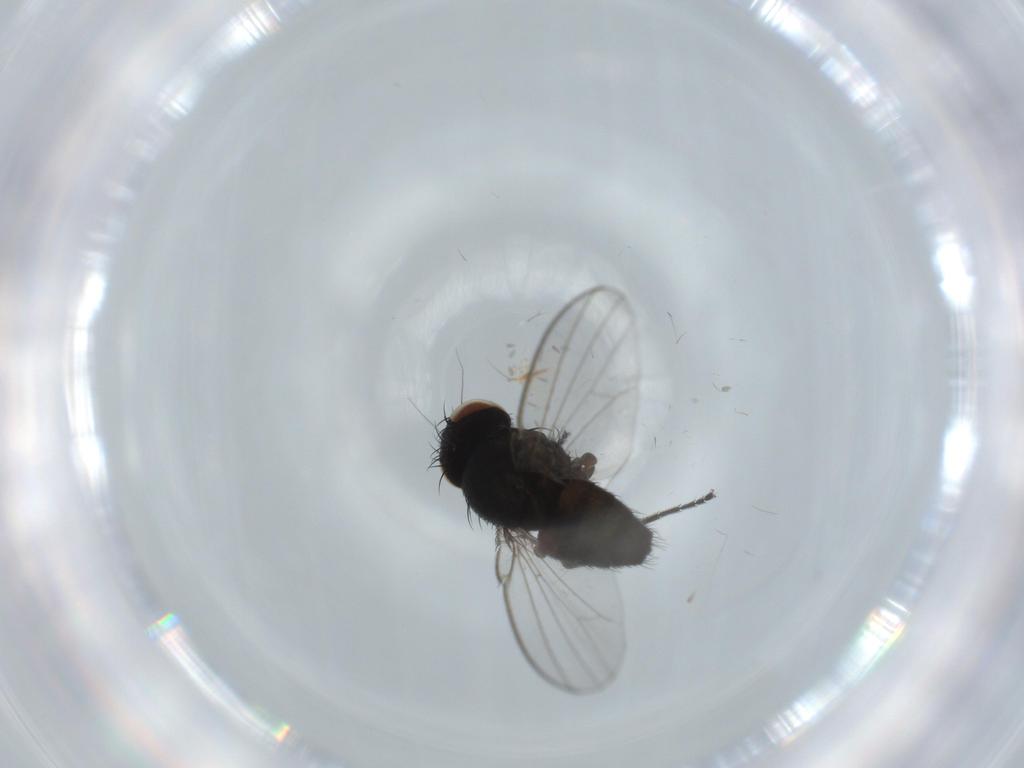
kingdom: Animalia
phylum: Arthropoda
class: Insecta
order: Diptera
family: Milichiidae
